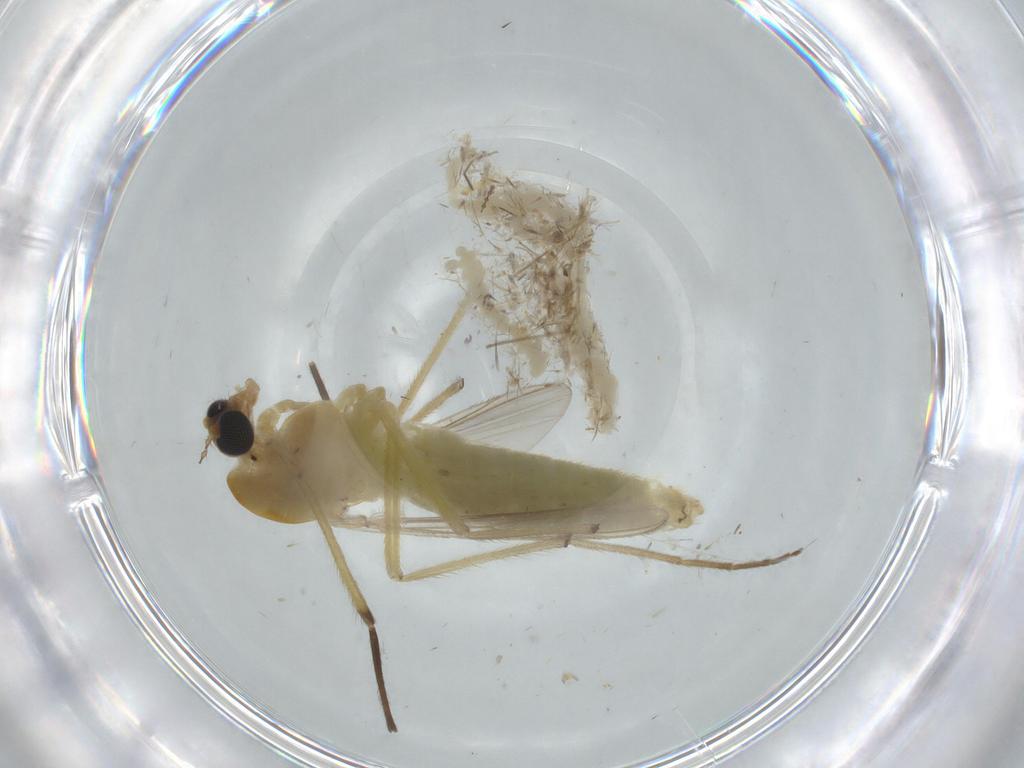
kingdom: Animalia
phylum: Arthropoda
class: Insecta
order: Diptera
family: Chironomidae
